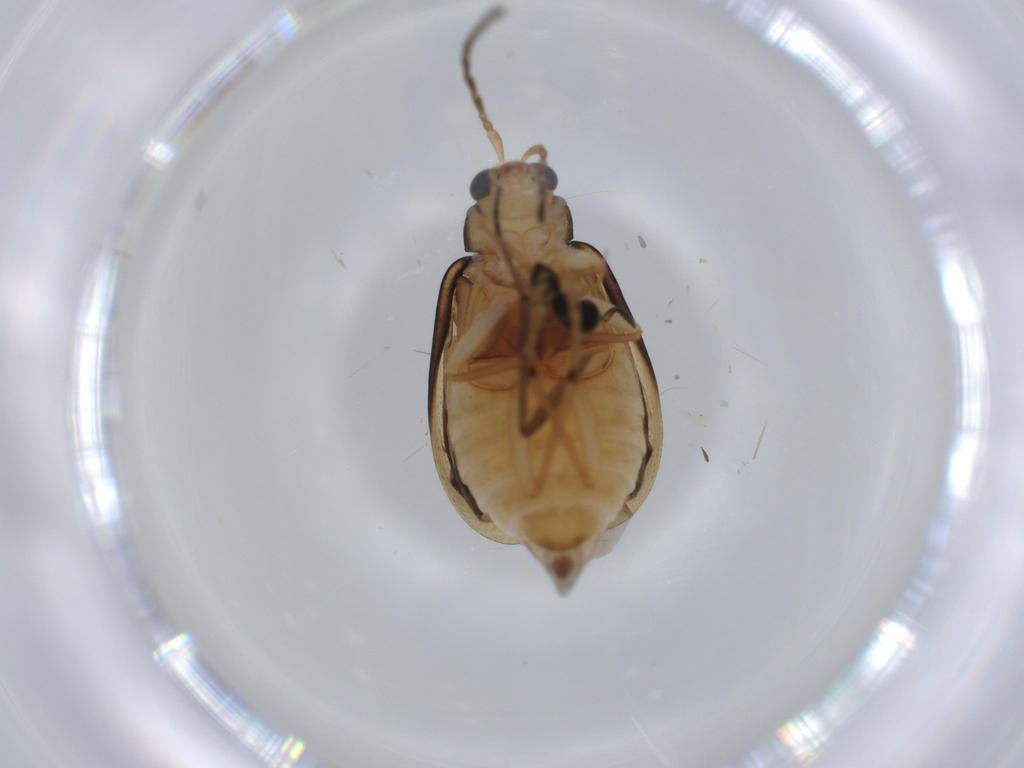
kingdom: Animalia
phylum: Arthropoda
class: Insecta
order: Coleoptera
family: Chrysomelidae
